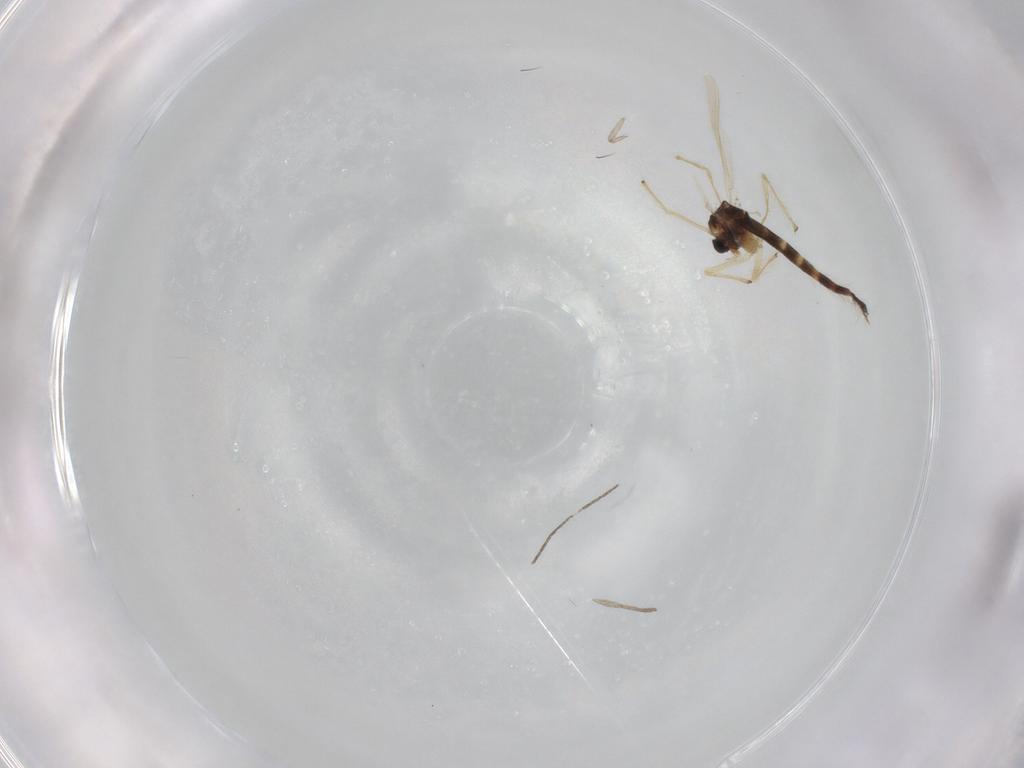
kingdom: Animalia
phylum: Arthropoda
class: Insecta
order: Diptera
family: Chironomidae
